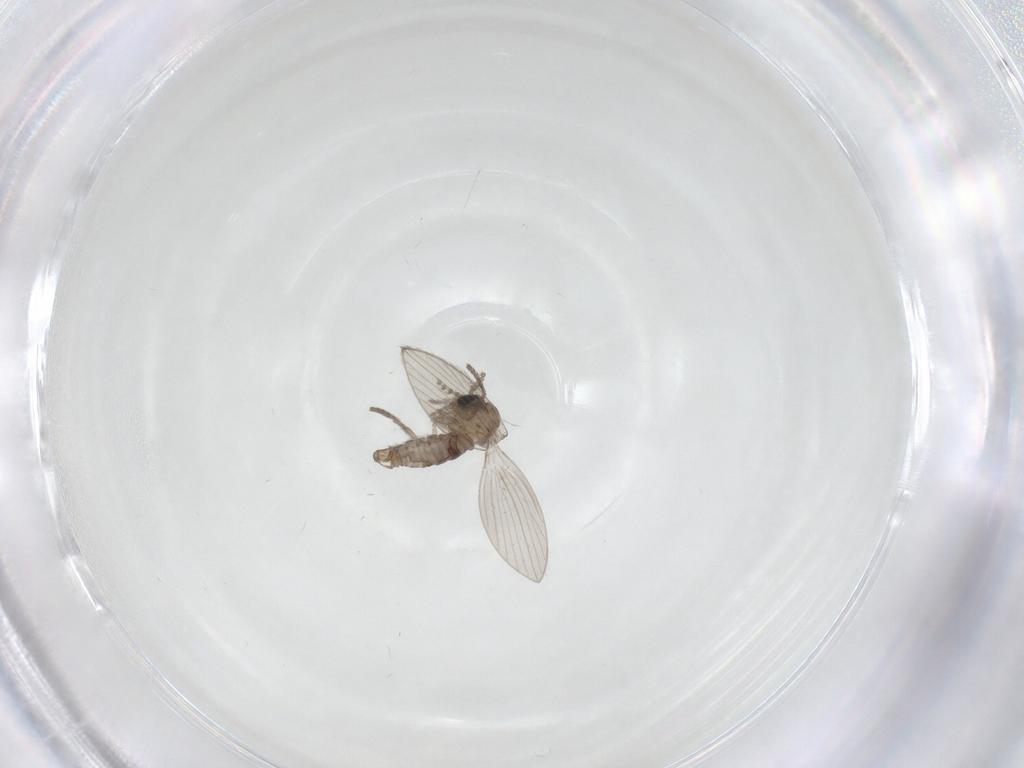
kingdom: Animalia
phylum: Arthropoda
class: Insecta
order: Diptera
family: Psychodidae
